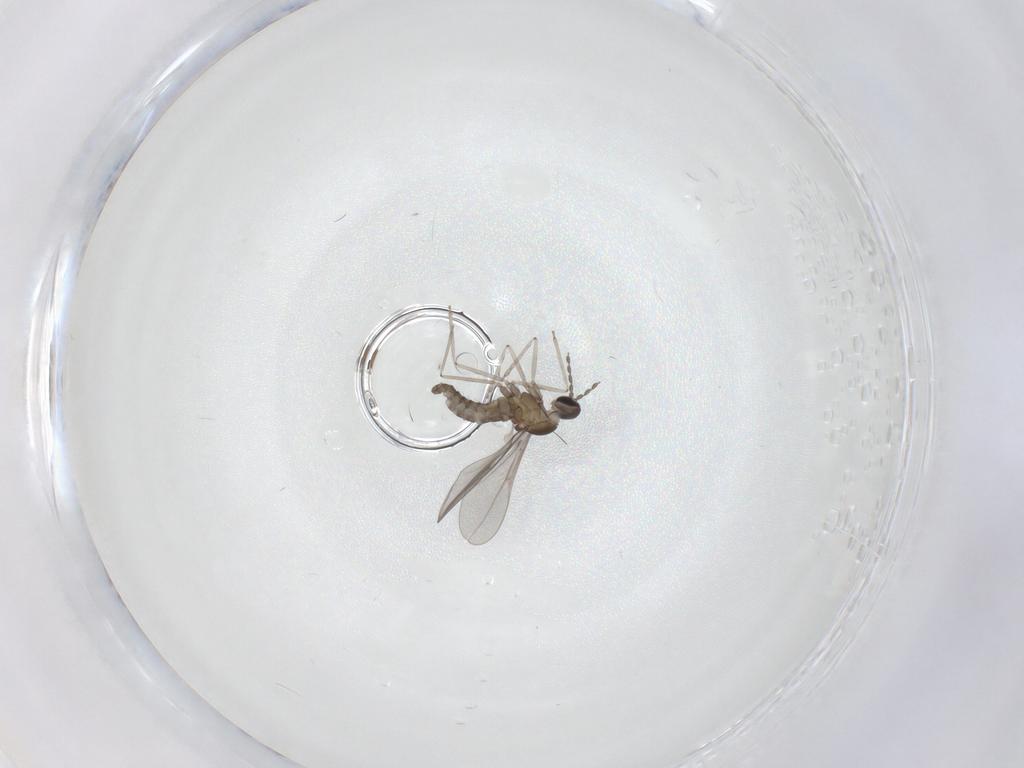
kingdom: Animalia
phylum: Arthropoda
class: Insecta
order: Diptera
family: Cecidomyiidae
